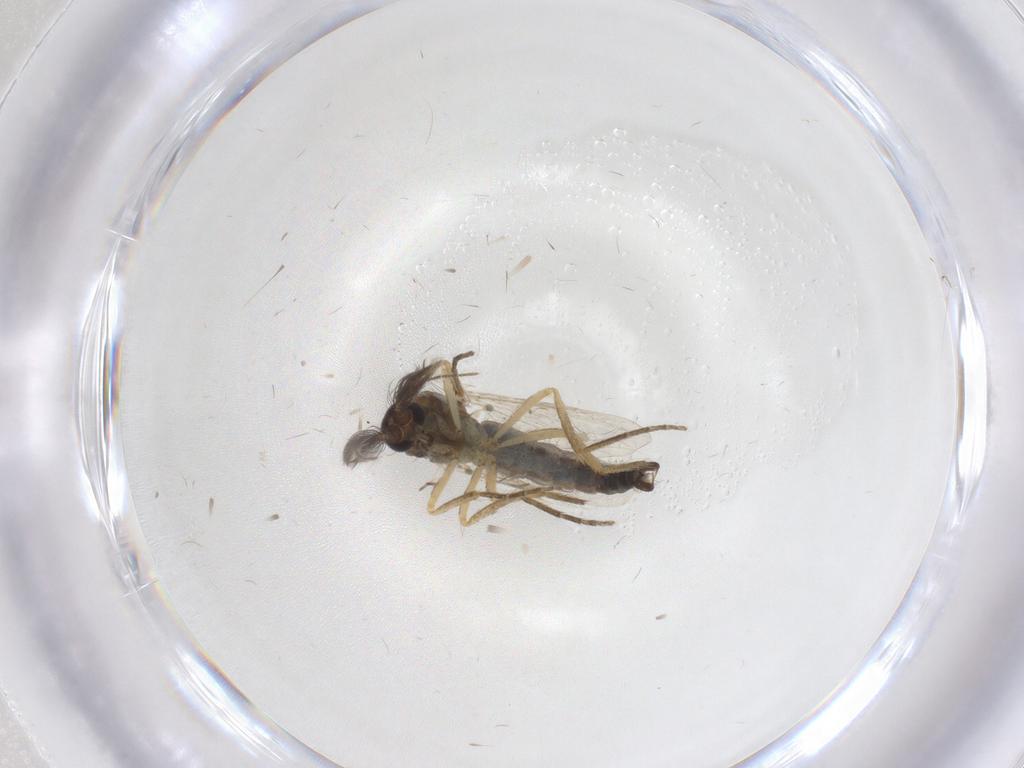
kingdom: Animalia
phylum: Arthropoda
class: Insecta
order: Diptera
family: Ceratopogonidae
